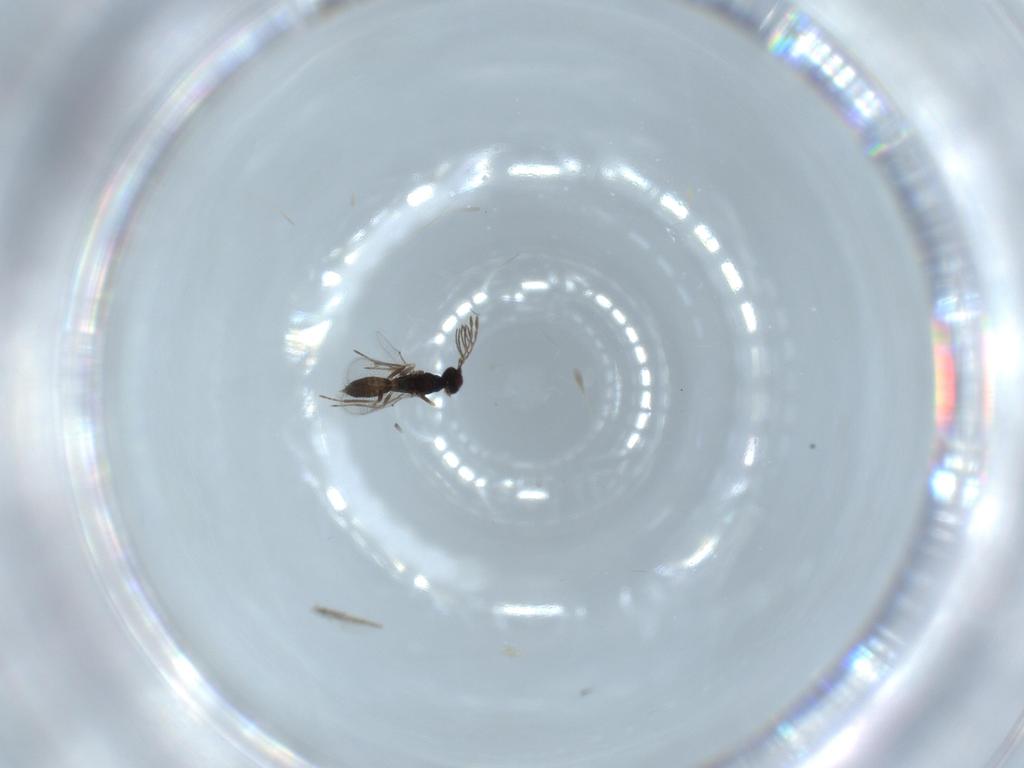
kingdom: Animalia
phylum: Arthropoda
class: Insecta
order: Hymenoptera
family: Eulophidae
